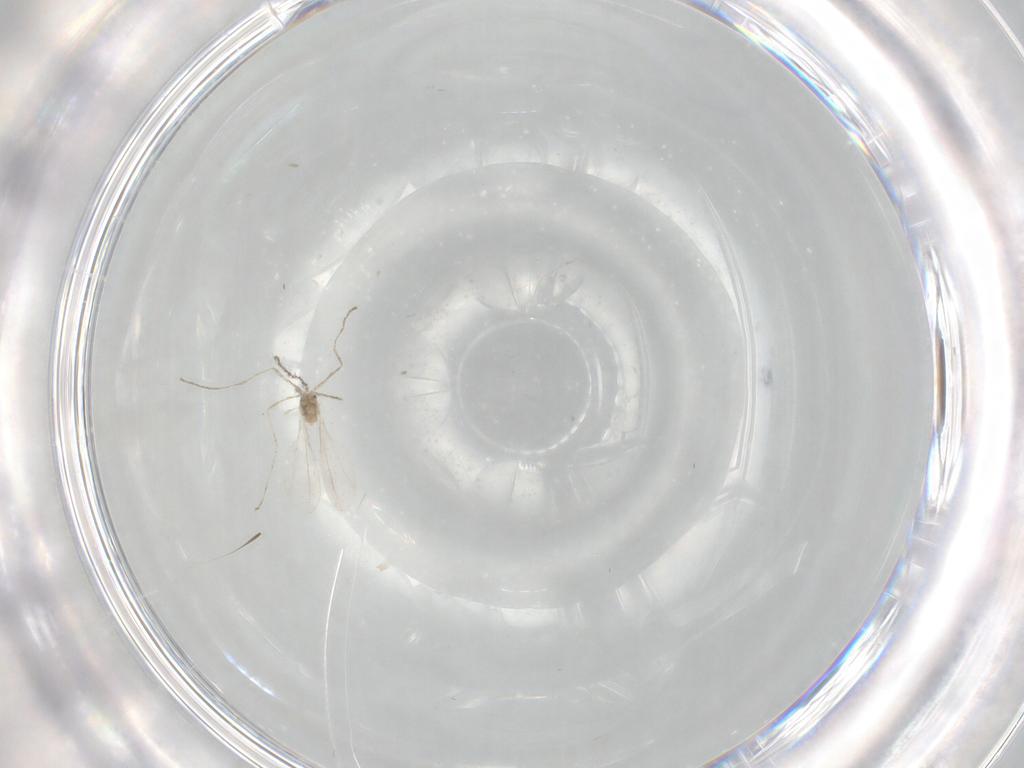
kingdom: Animalia
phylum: Arthropoda
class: Insecta
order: Diptera
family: Cecidomyiidae
